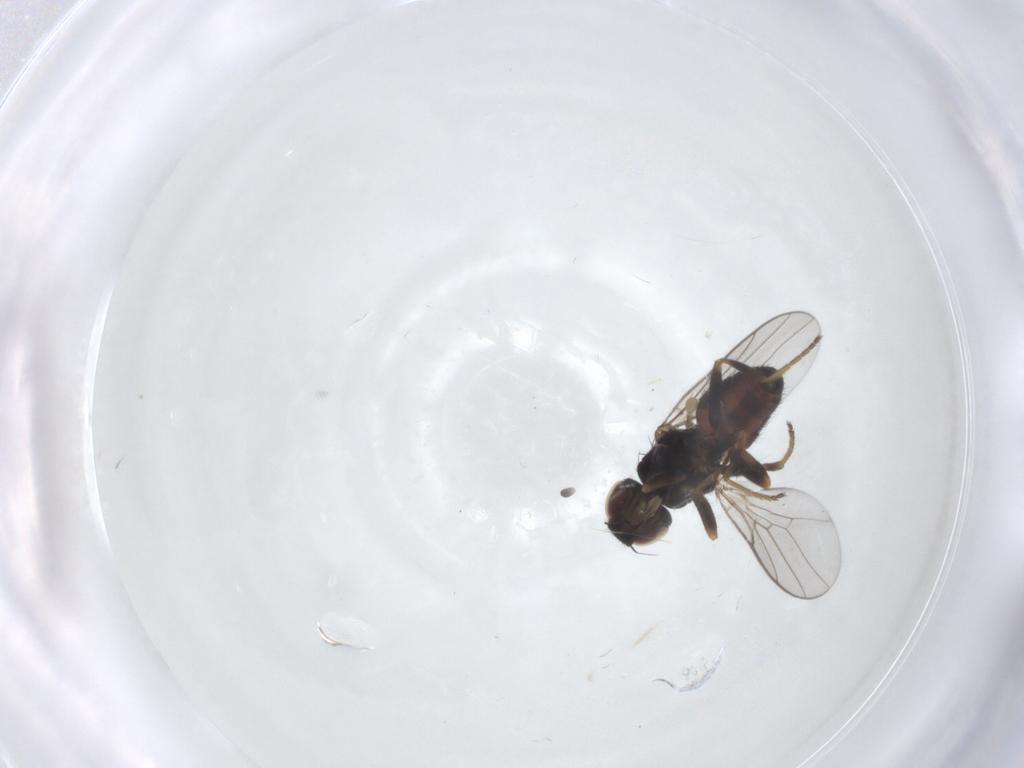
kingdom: Animalia
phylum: Arthropoda
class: Insecta
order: Diptera
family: Chloropidae
